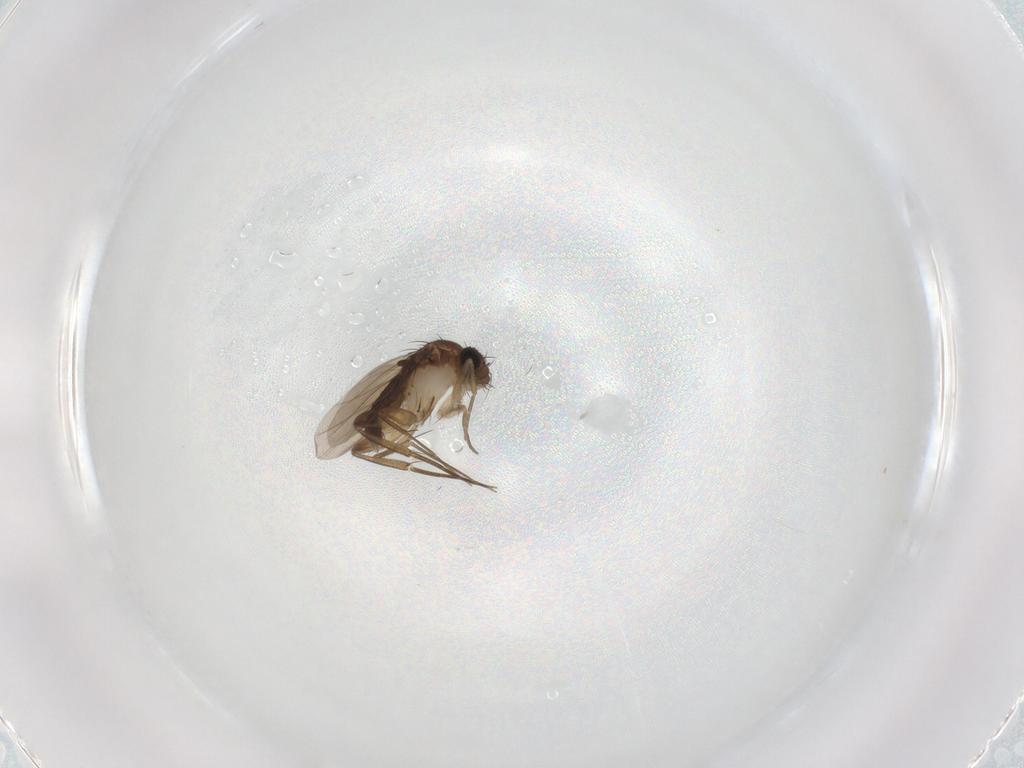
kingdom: Animalia
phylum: Arthropoda
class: Insecta
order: Diptera
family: Phoridae
